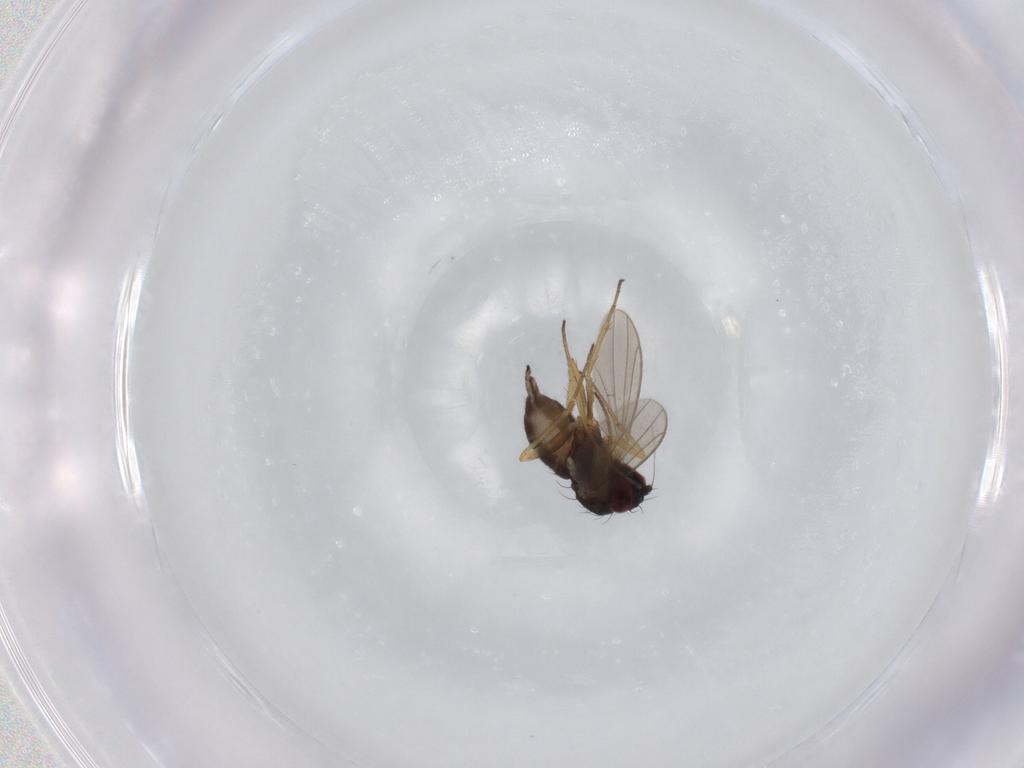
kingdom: Animalia
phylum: Arthropoda
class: Insecta
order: Diptera
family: Dolichopodidae
